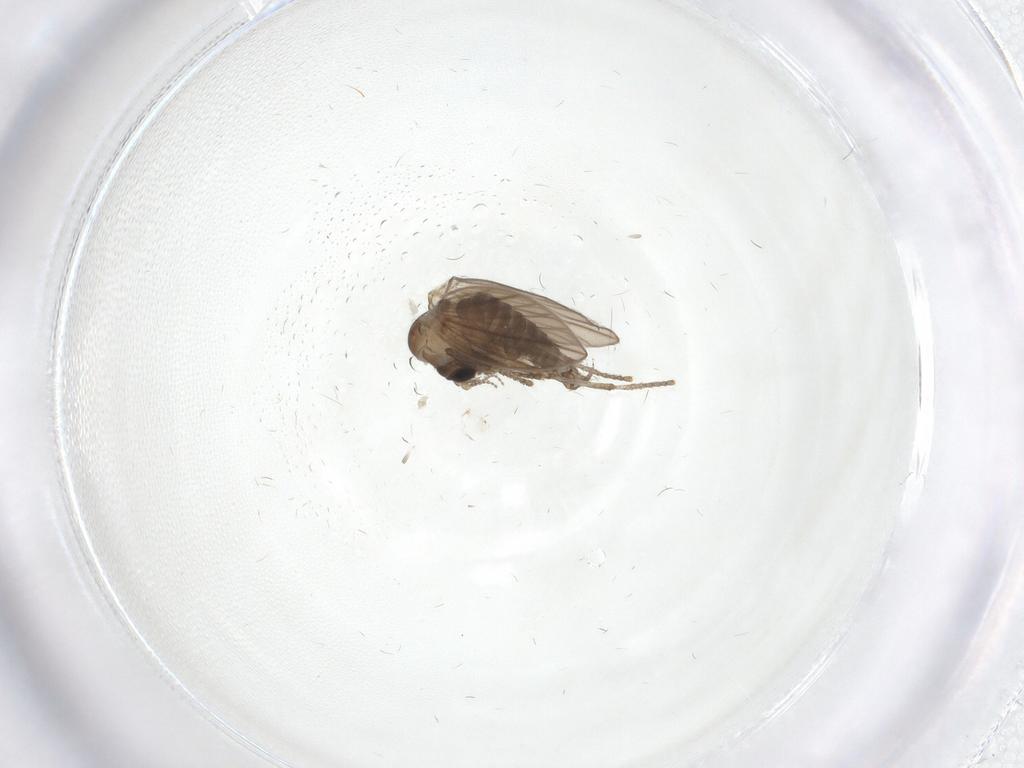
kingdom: Animalia
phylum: Arthropoda
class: Insecta
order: Diptera
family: Psychodidae
